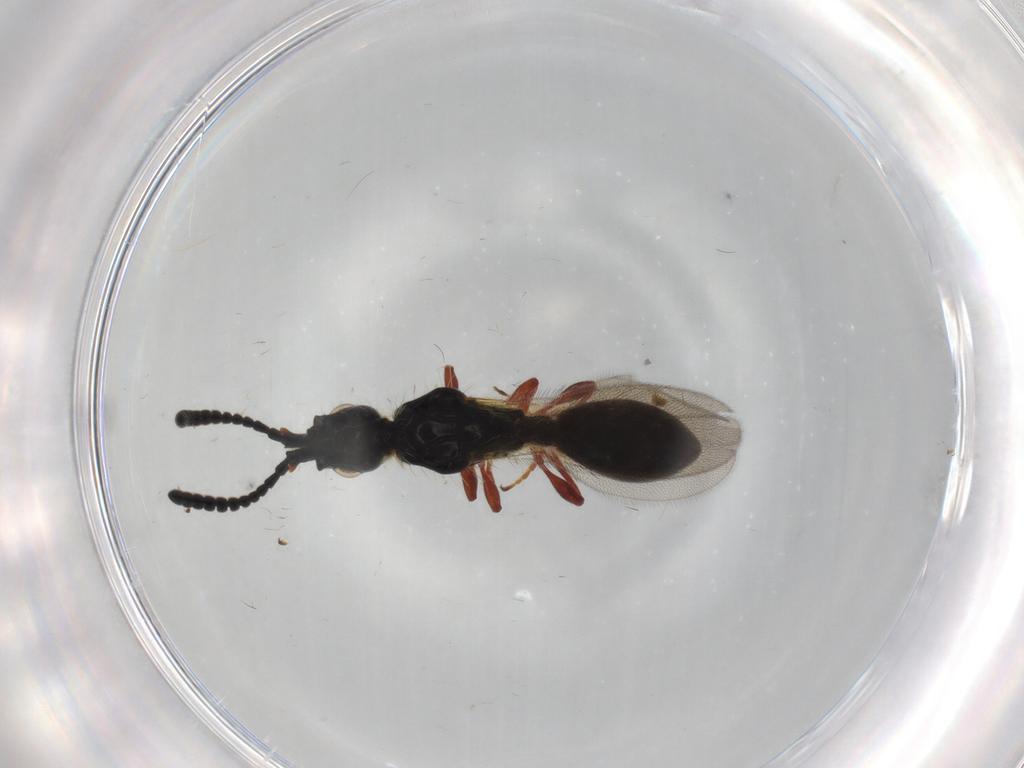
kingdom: Animalia
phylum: Arthropoda
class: Insecta
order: Hymenoptera
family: Diapriidae
